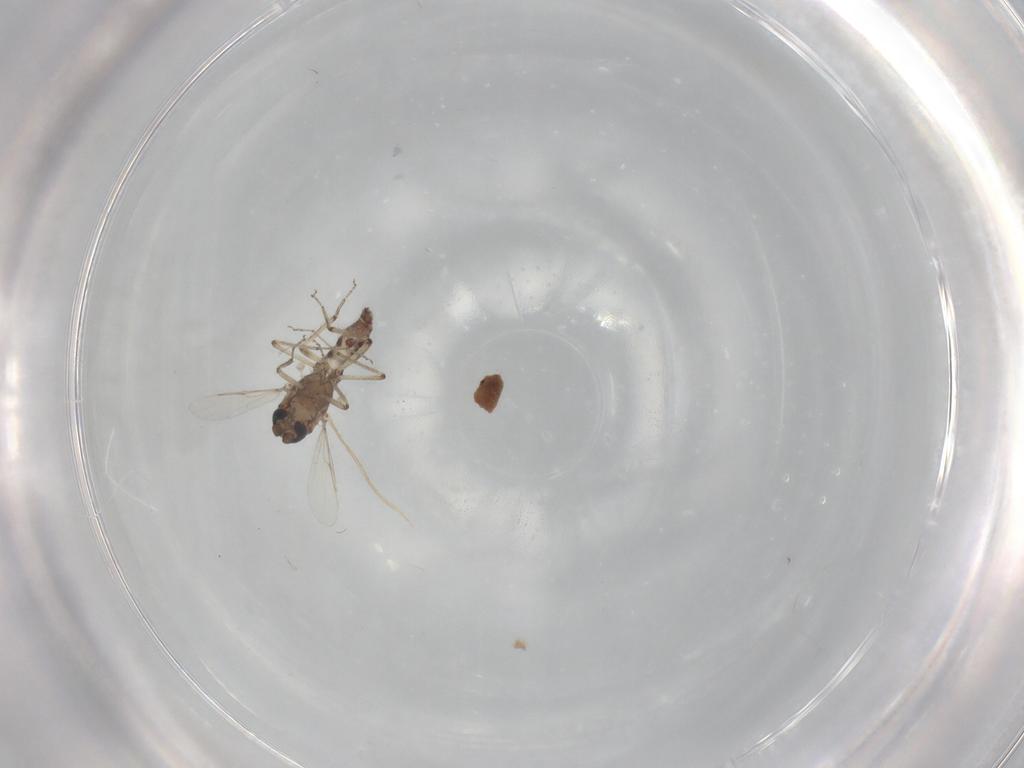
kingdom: Animalia
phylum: Arthropoda
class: Insecta
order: Diptera
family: Ceratopogonidae
